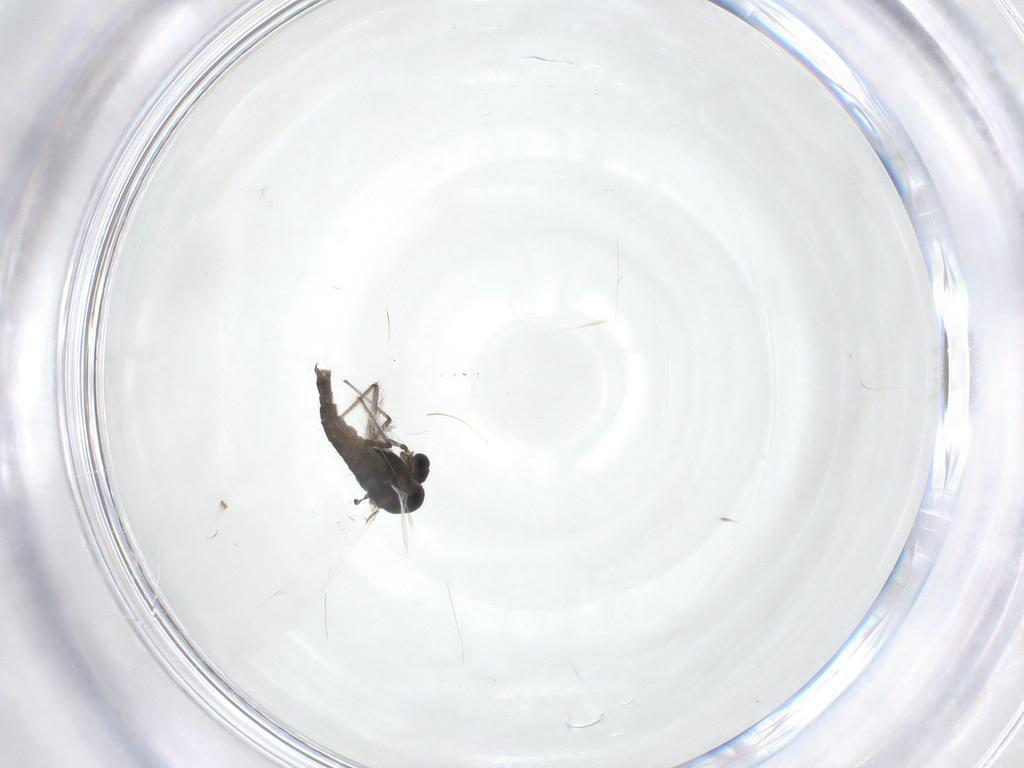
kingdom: Animalia
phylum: Arthropoda
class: Insecta
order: Diptera
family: Chironomidae
